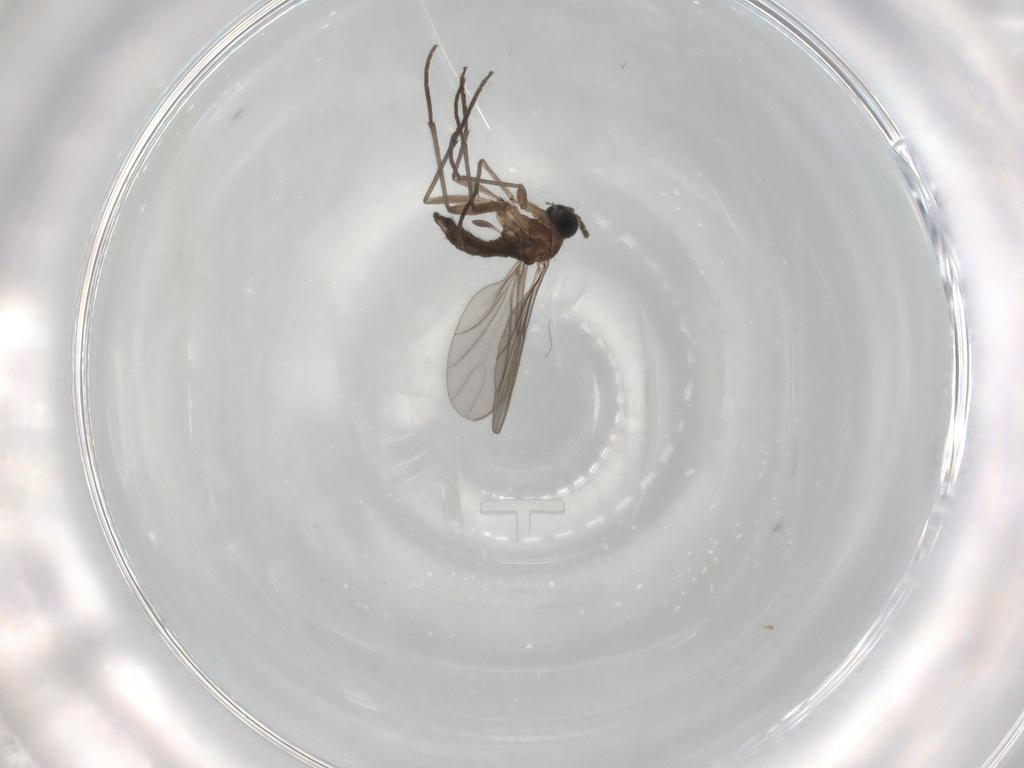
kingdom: Animalia
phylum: Arthropoda
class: Insecta
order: Diptera
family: Sciaridae
